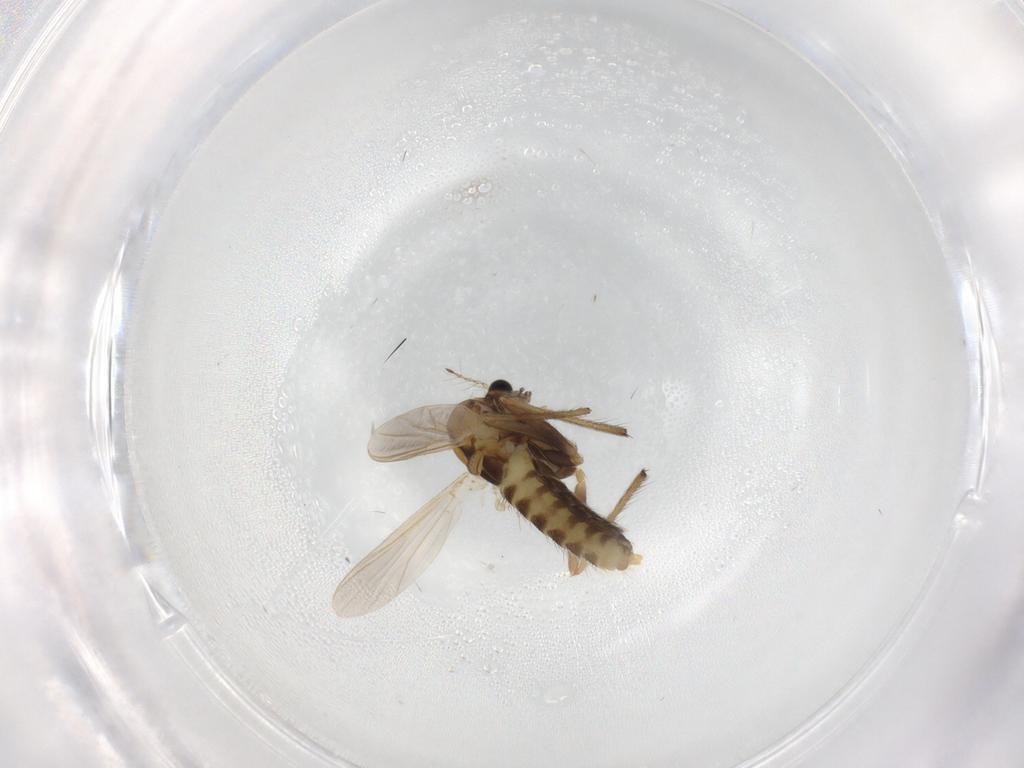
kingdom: Animalia
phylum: Arthropoda
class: Insecta
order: Diptera
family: Chironomidae
